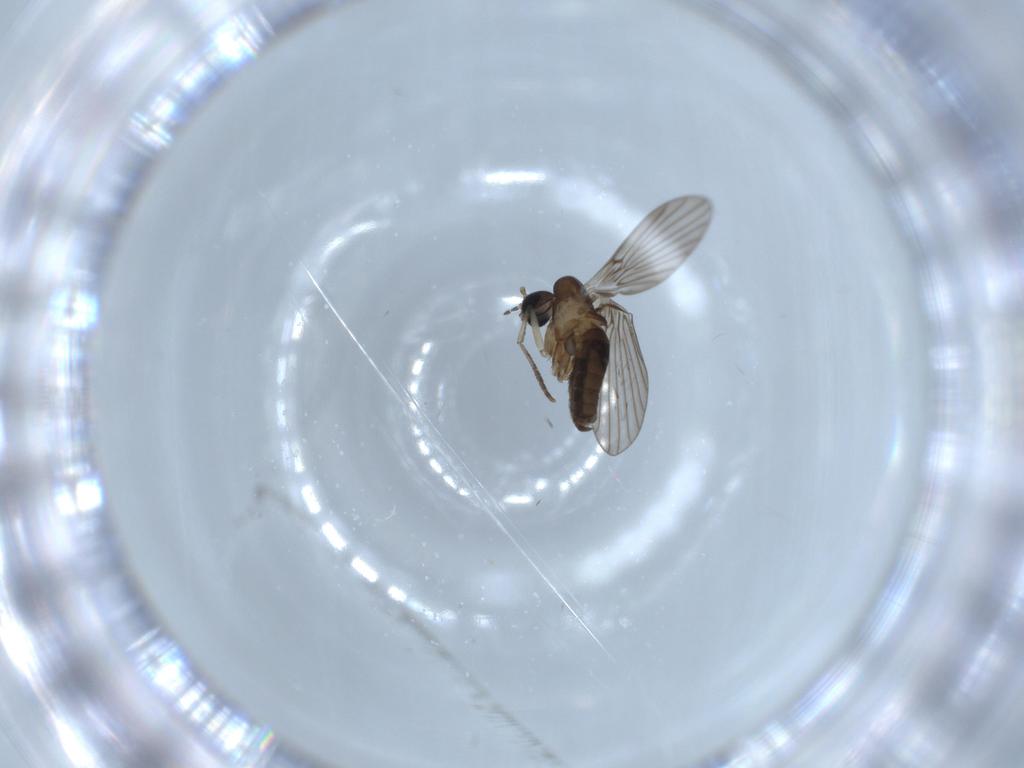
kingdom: Animalia
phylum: Arthropoda
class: Insecta
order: Diptera
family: Psychodidae
